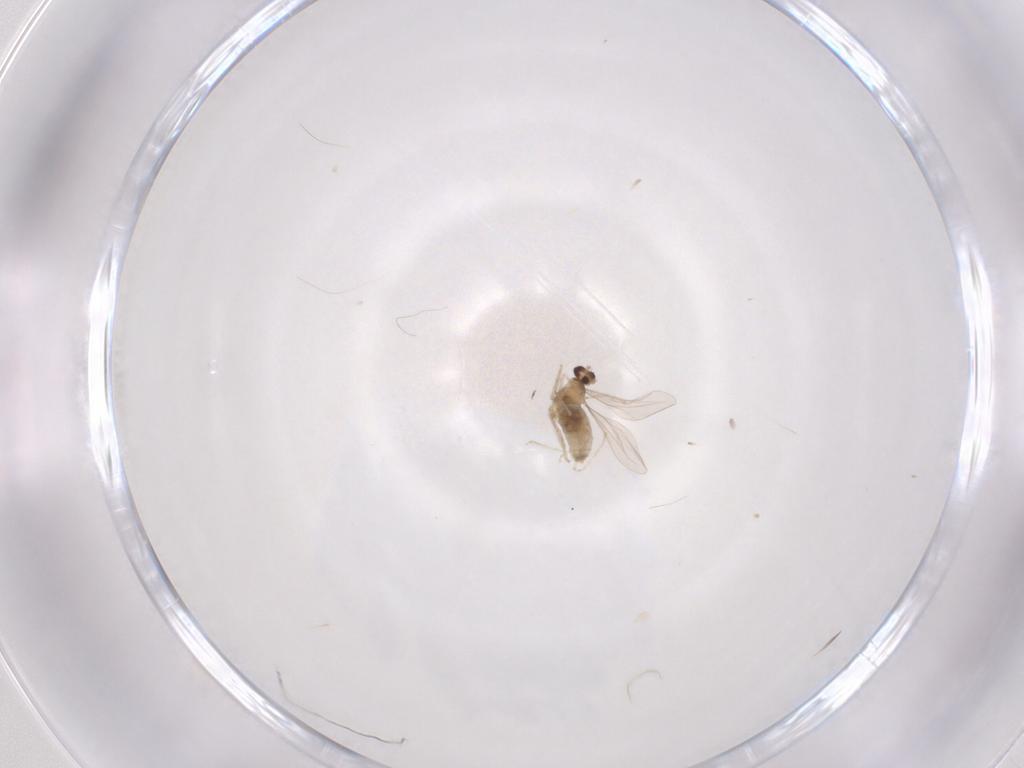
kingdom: Animalia
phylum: Arthropoda
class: Insecta
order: Diptera
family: Cecidomyiidae
